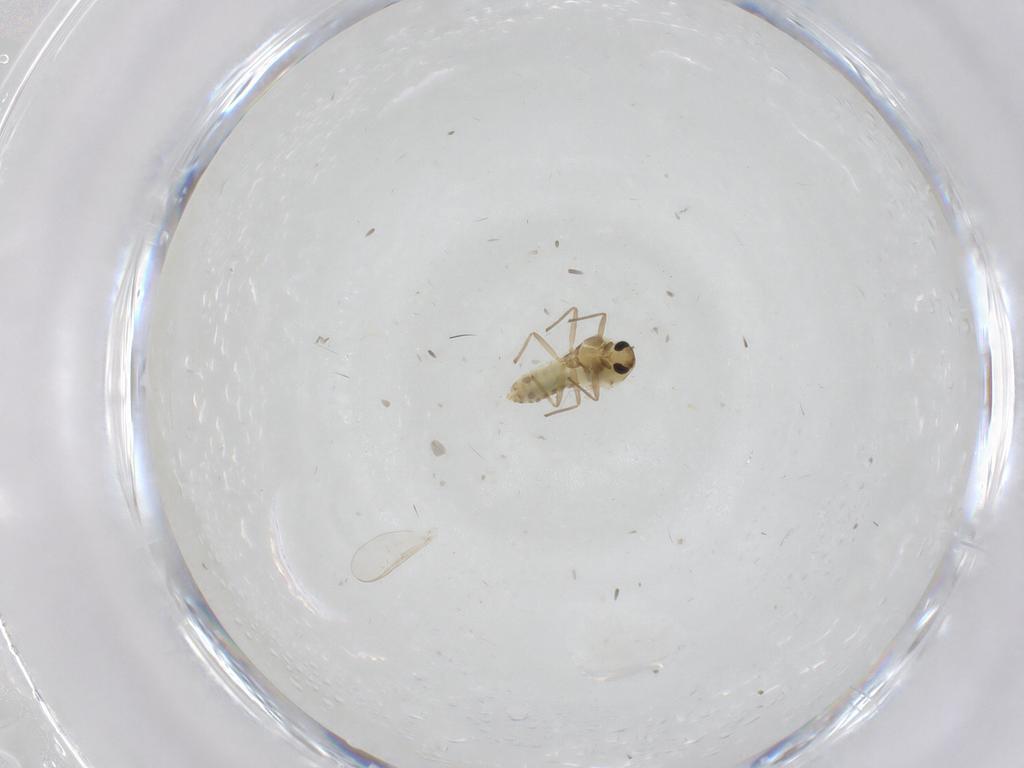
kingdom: Animalia
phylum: Arthropoda
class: Insecta
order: Diptera
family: Chironomidae
